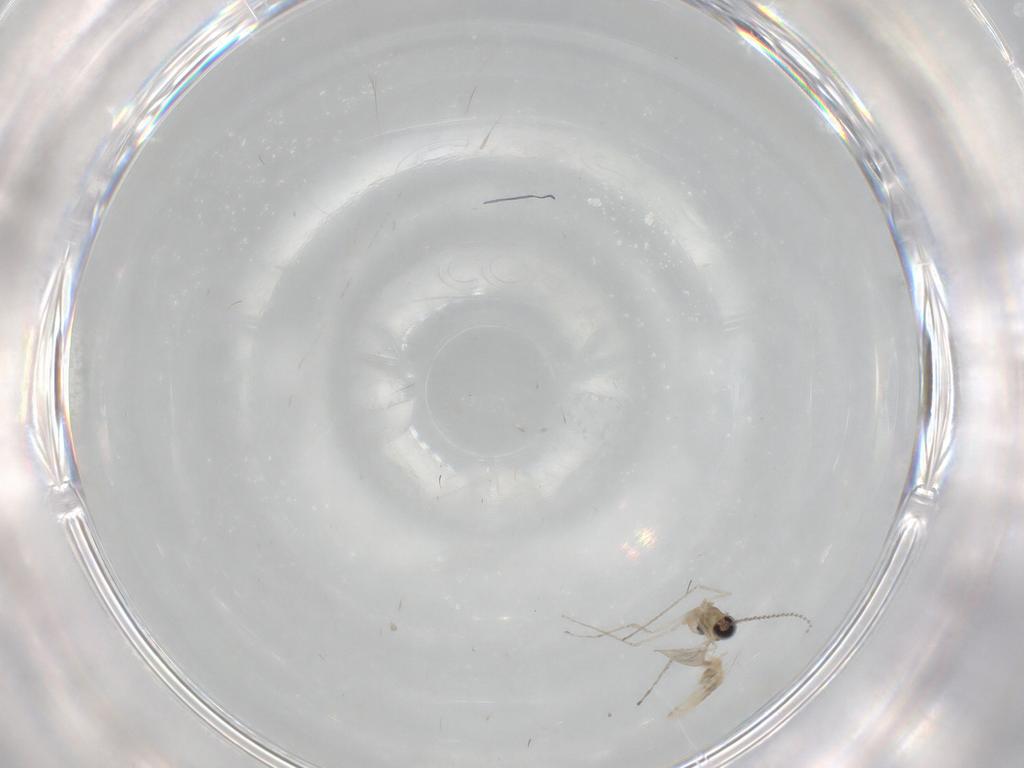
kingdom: Animalia
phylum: Arthropoda
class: Insecta
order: Diptera
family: Cecidomyiidae
